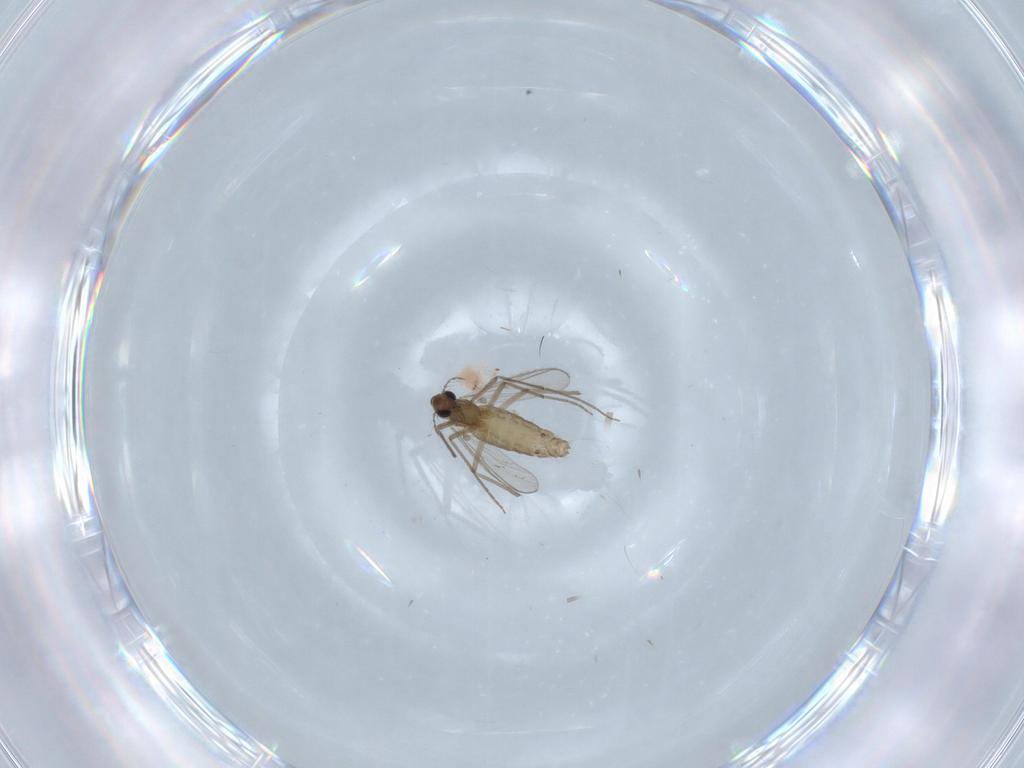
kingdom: Animalia
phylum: Arthropoda
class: Insecta
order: Diptera
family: Chironomidae
